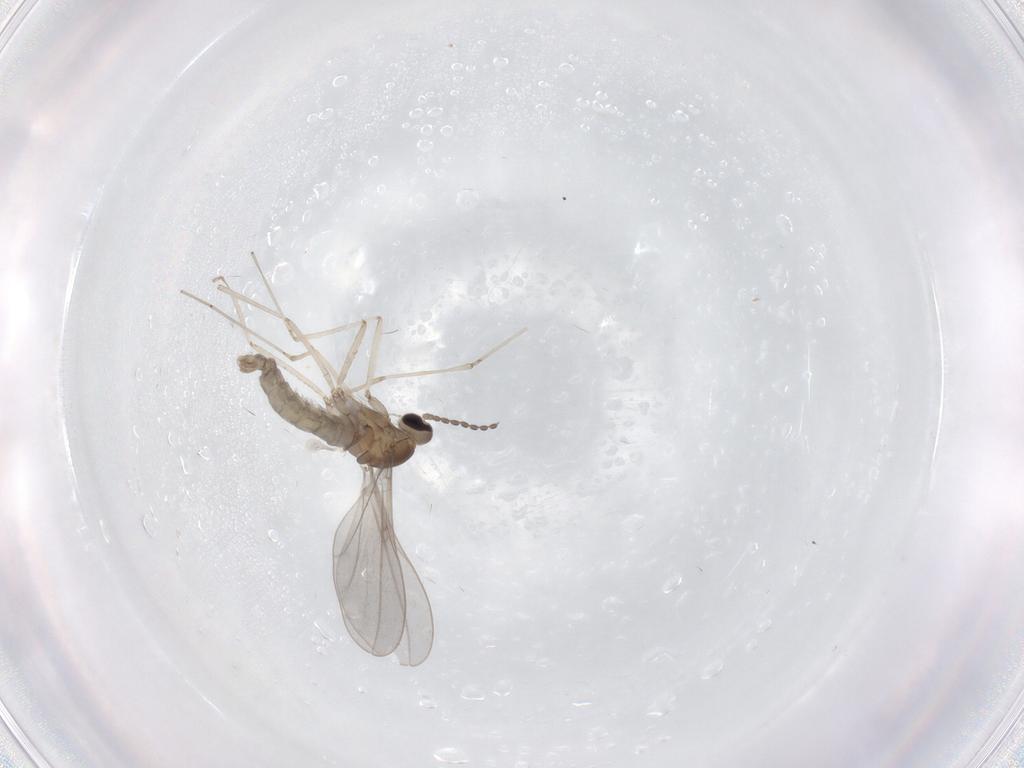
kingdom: Animalia
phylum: Arthropoda
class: Insecta
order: Diptera
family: Cecidomyiidae
